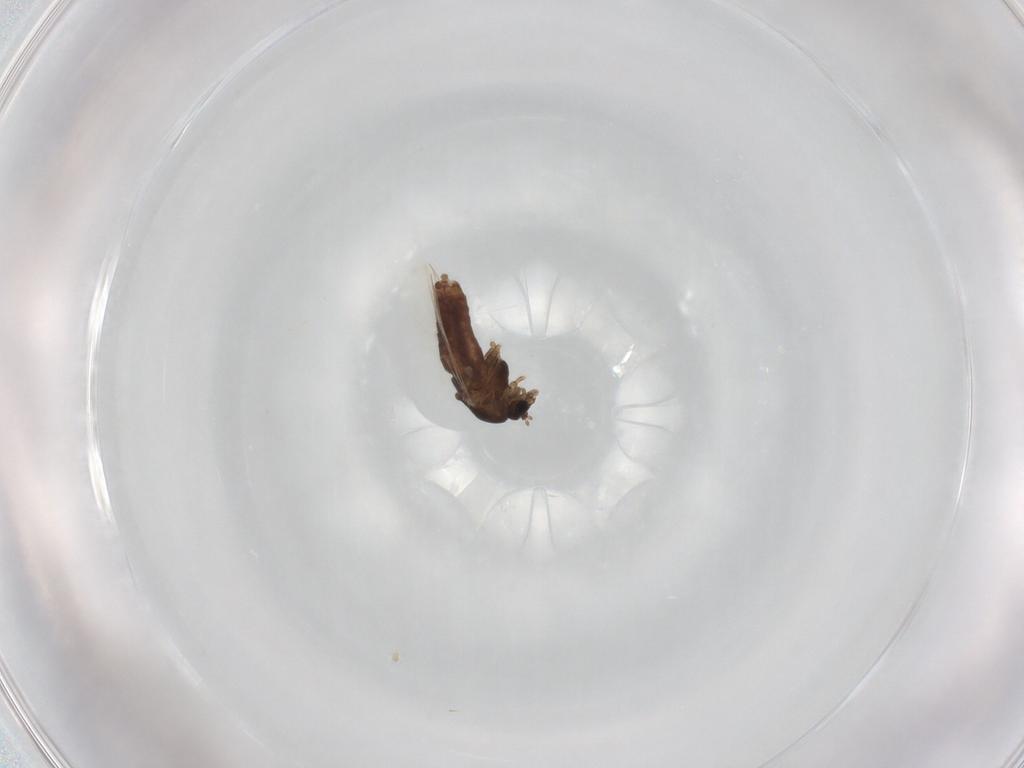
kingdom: Animalia
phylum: Arthropoda
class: Insecta
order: Diptera
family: Chironomidae
